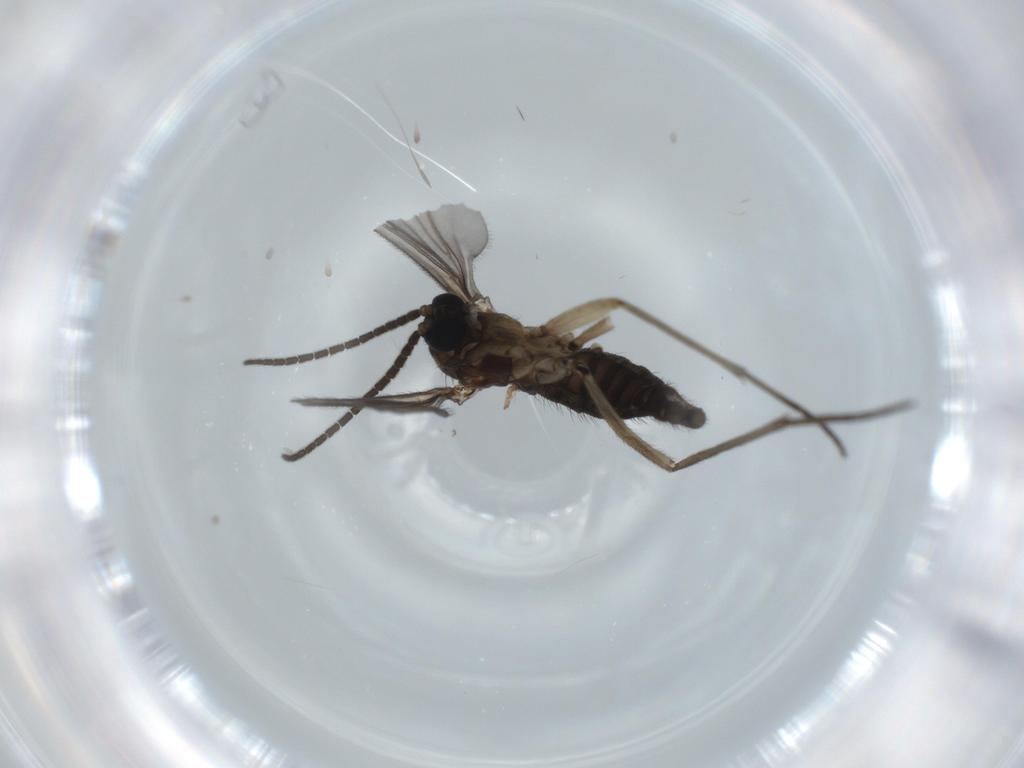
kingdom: Animalia
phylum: Arthropoda
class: Insecta
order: Diptera
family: Sciaridae
